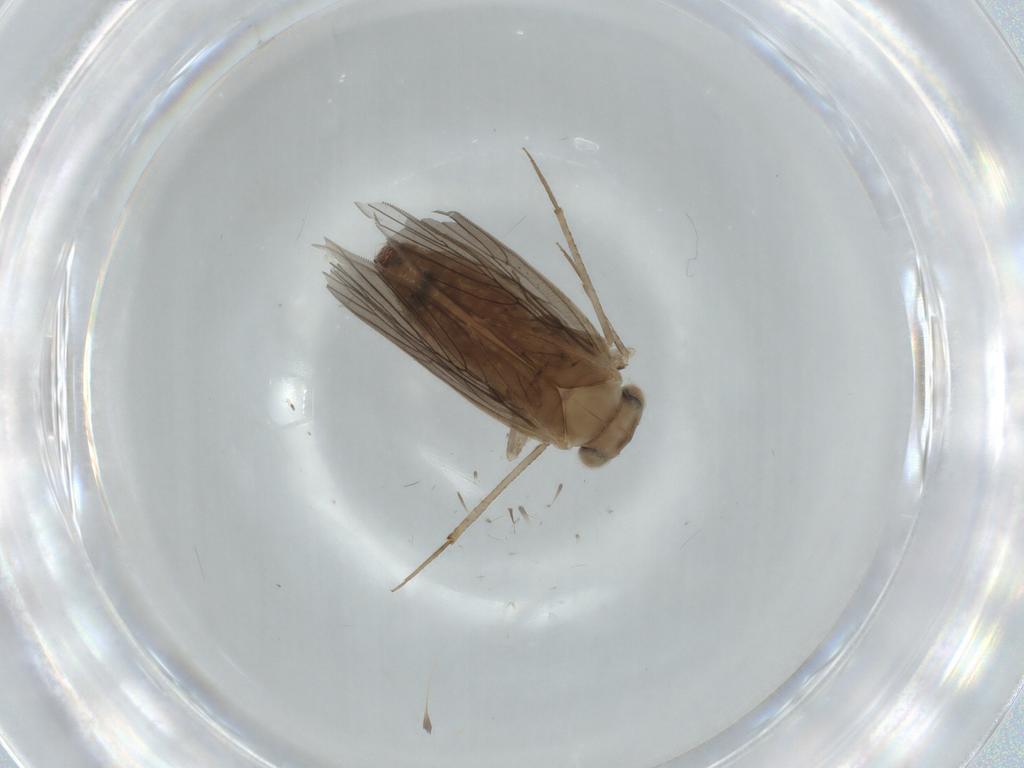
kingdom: Animalia
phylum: Arthropoda
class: Insecta
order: Psocodea
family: Lepidopsocidae
